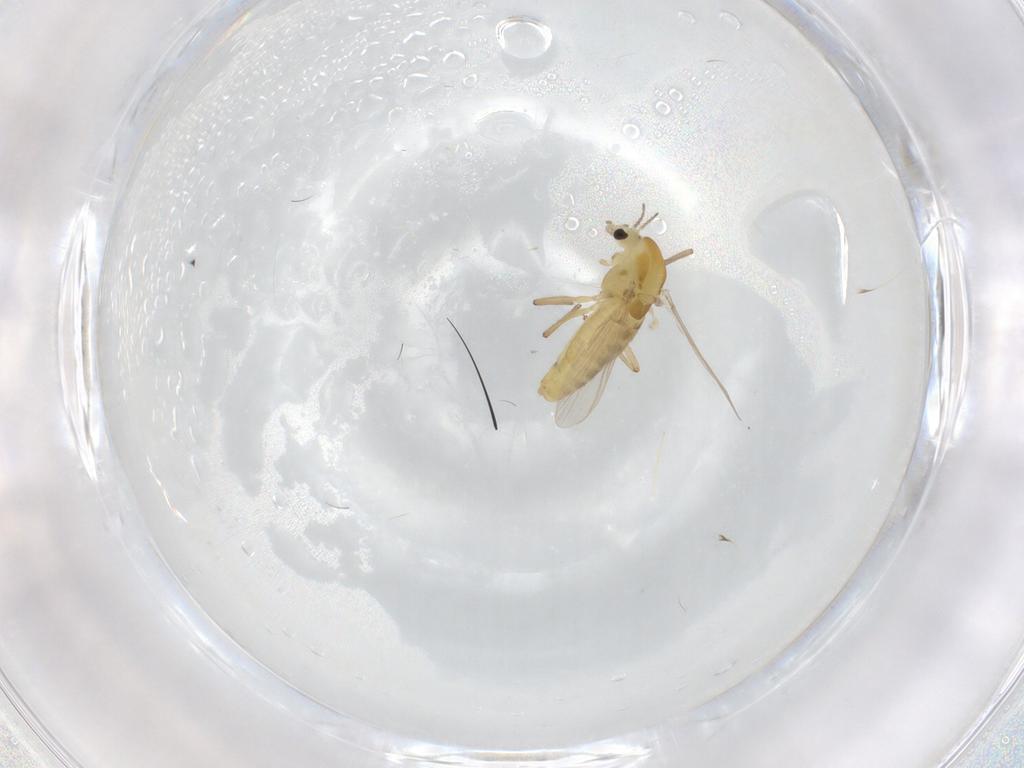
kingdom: Animalia
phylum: Arthropoda
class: Insecta
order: Diptera
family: Chironomidae
